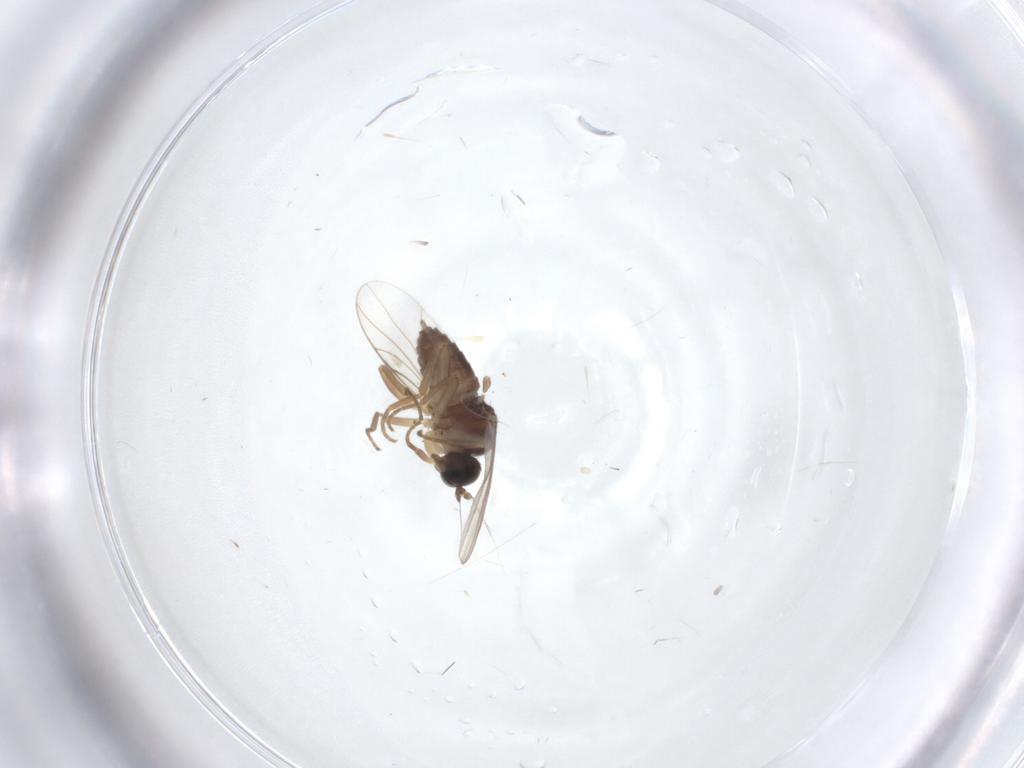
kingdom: Animalia
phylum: Arthropoda
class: Insecta
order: Diptera
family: Hybotidae
